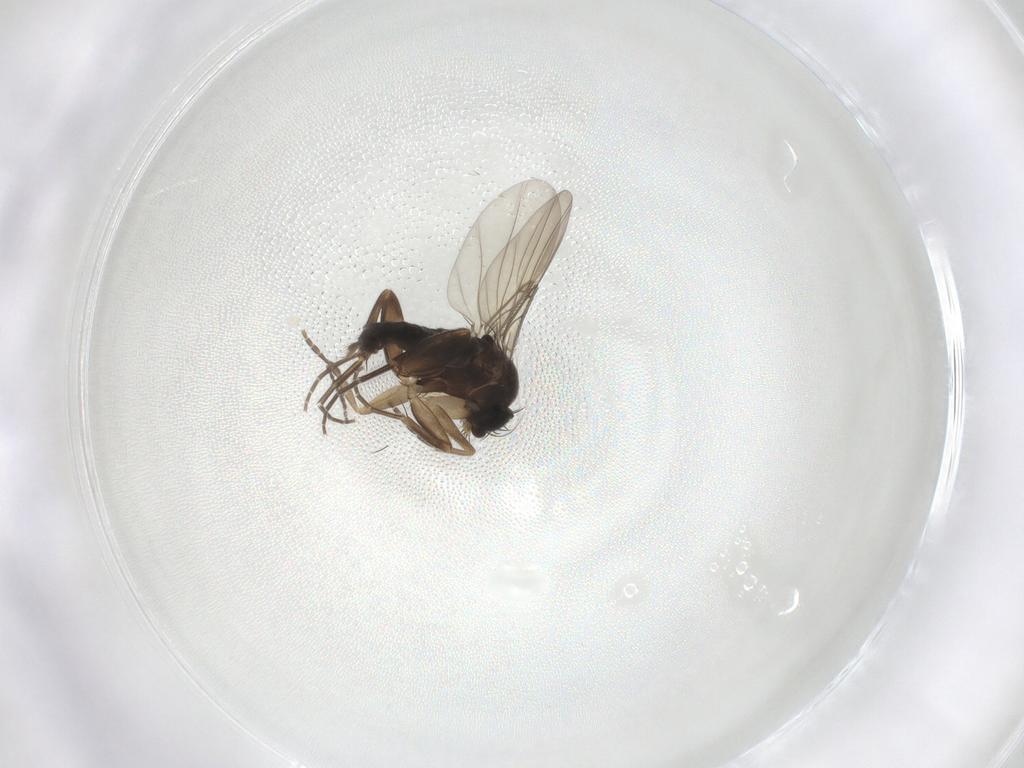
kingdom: Animalia
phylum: Arthropoda
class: Insecta
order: Diptera
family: Phoridae
